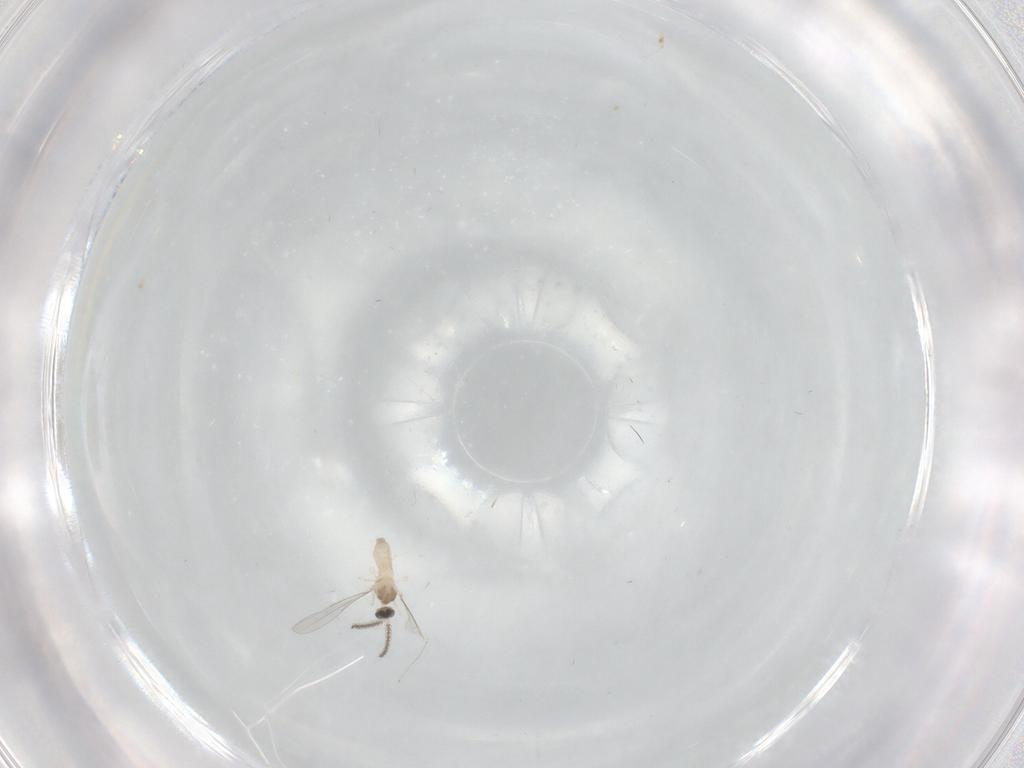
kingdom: Animalia
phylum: Arthropoda
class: Insecta
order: Diptera
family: Cecidomyiidae
